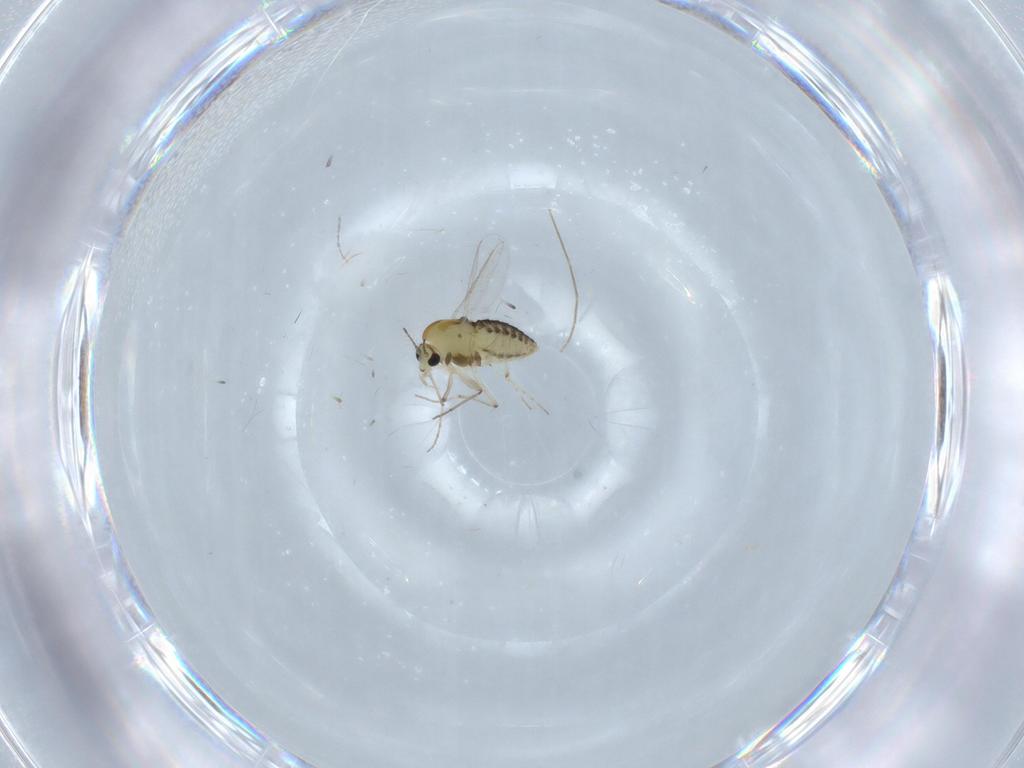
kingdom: Animalia
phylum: Arthropoda
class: Insecta
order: Diptera
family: Chironomidae
